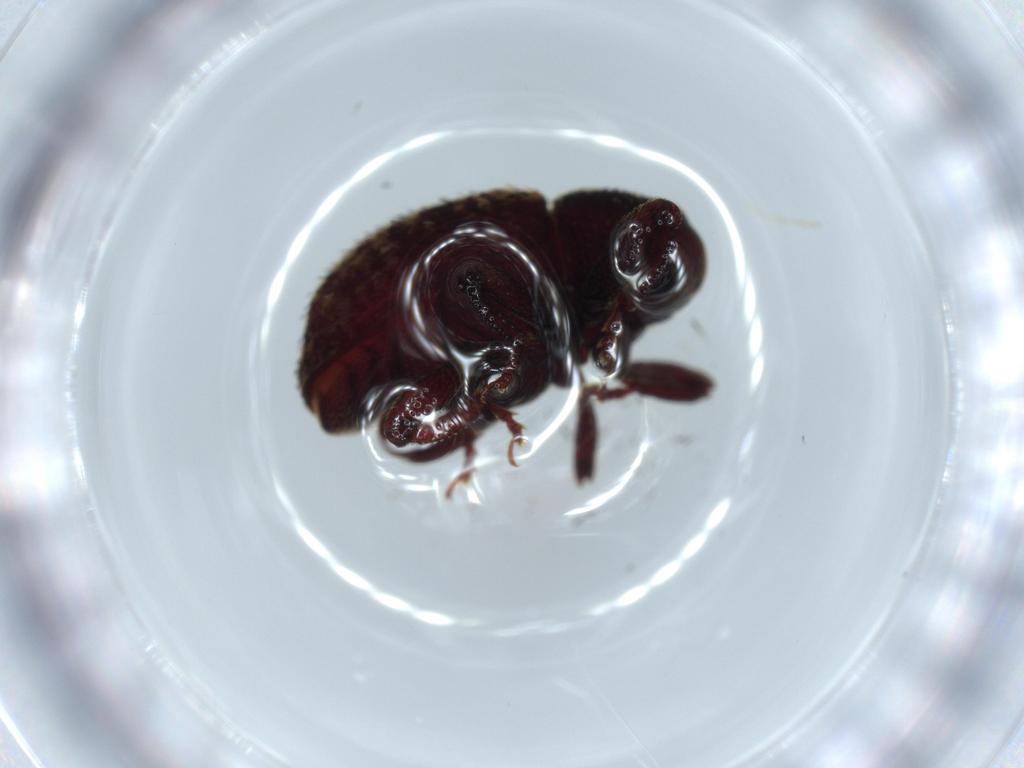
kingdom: Animalia
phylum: Arthropoda
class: Insecta
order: Coleoptera
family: Curculionidae
